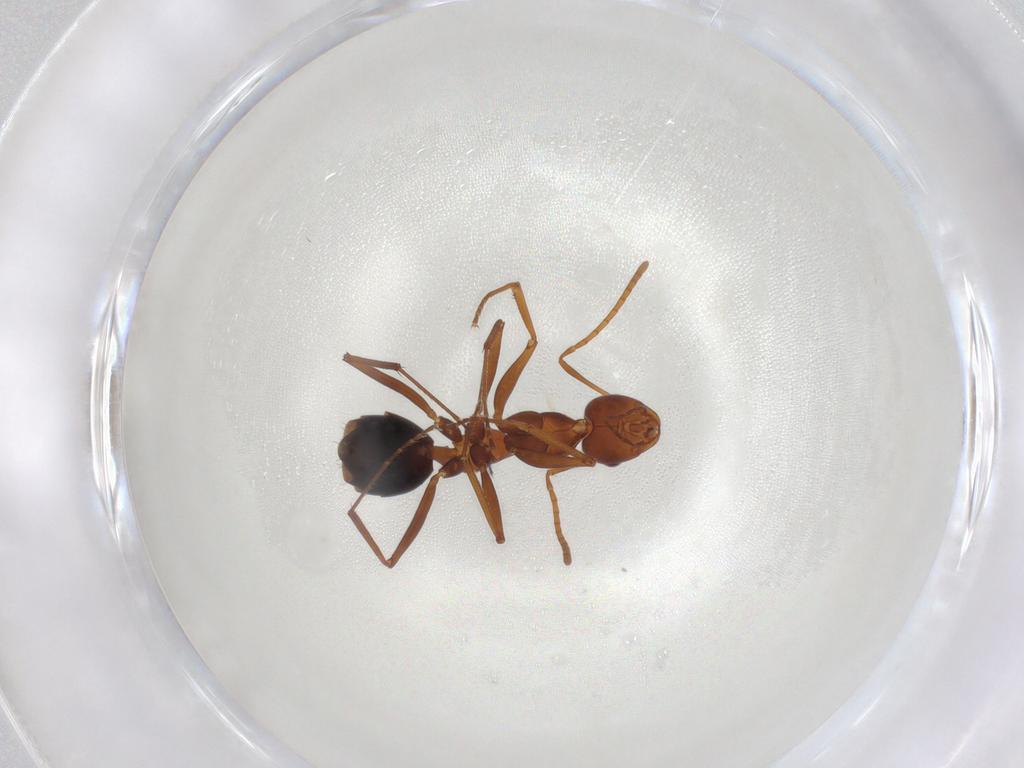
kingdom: Animalia
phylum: Arthropoda
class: Insecta
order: Hymenoptera
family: Formicidae
